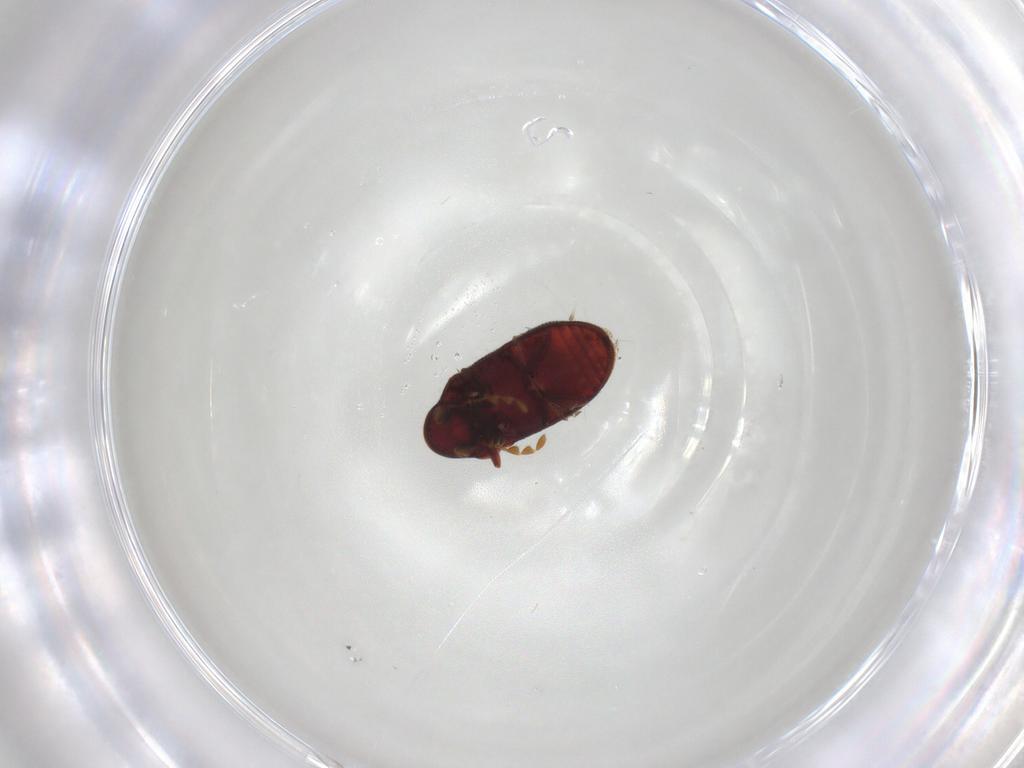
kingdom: Animalia
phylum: Arthropoda
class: Insecta
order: Coleoptera
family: Ptinidae
